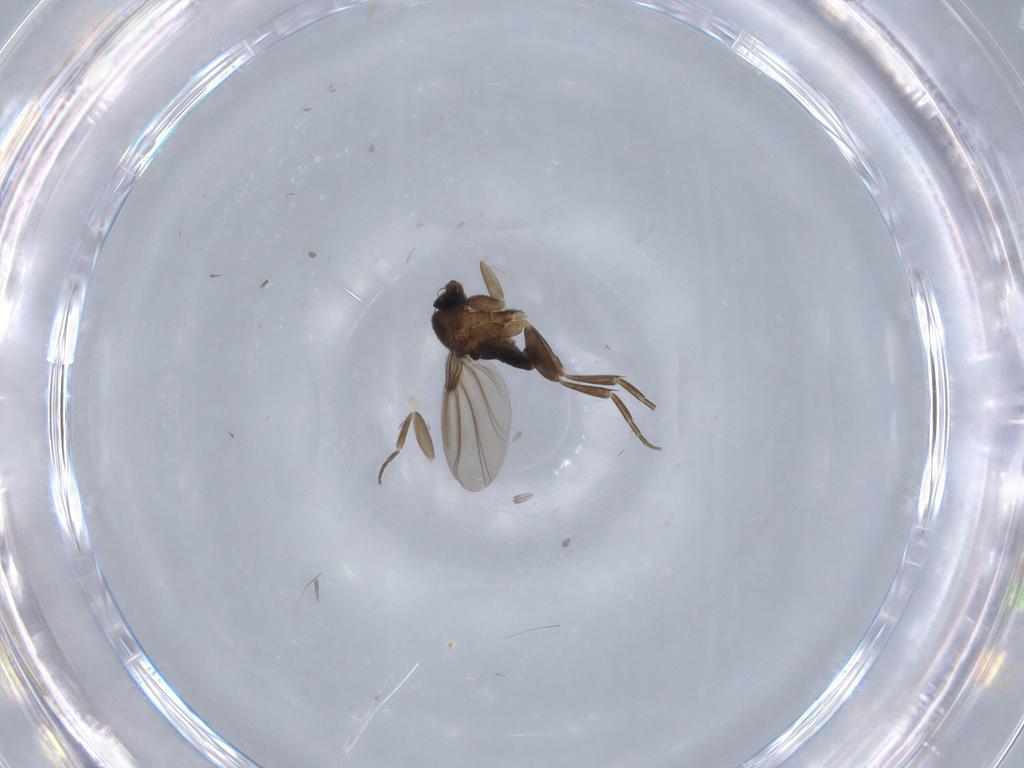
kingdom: Animalia
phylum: Arthropoda
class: Insecta
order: Diptera
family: Phoridae
